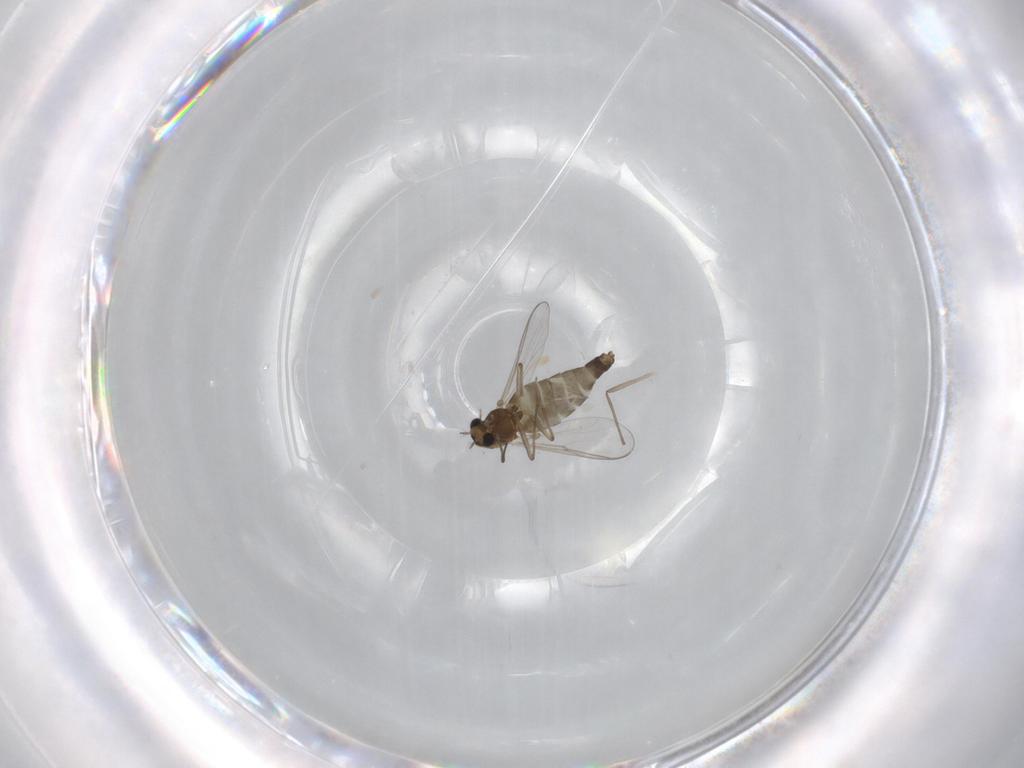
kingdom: Animalia
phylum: Arthropoda
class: Insecta
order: Diptera
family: Chironomidae
